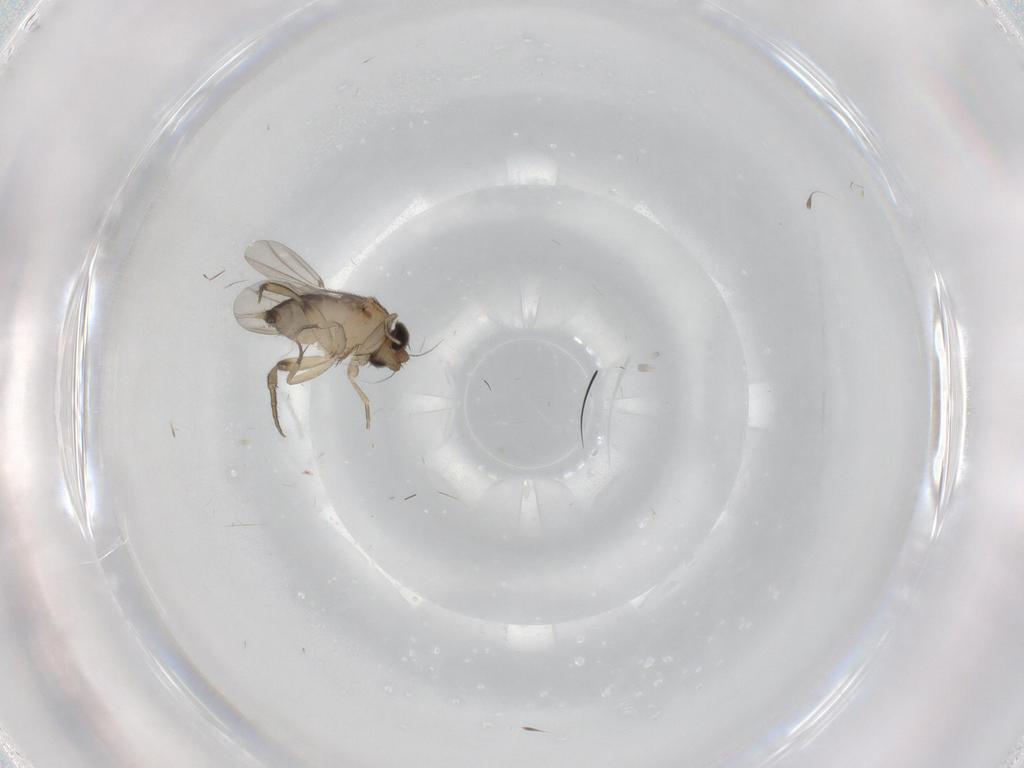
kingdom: Animalia
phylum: Arthropoda
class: Insecta
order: Diptera
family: Phoridae
